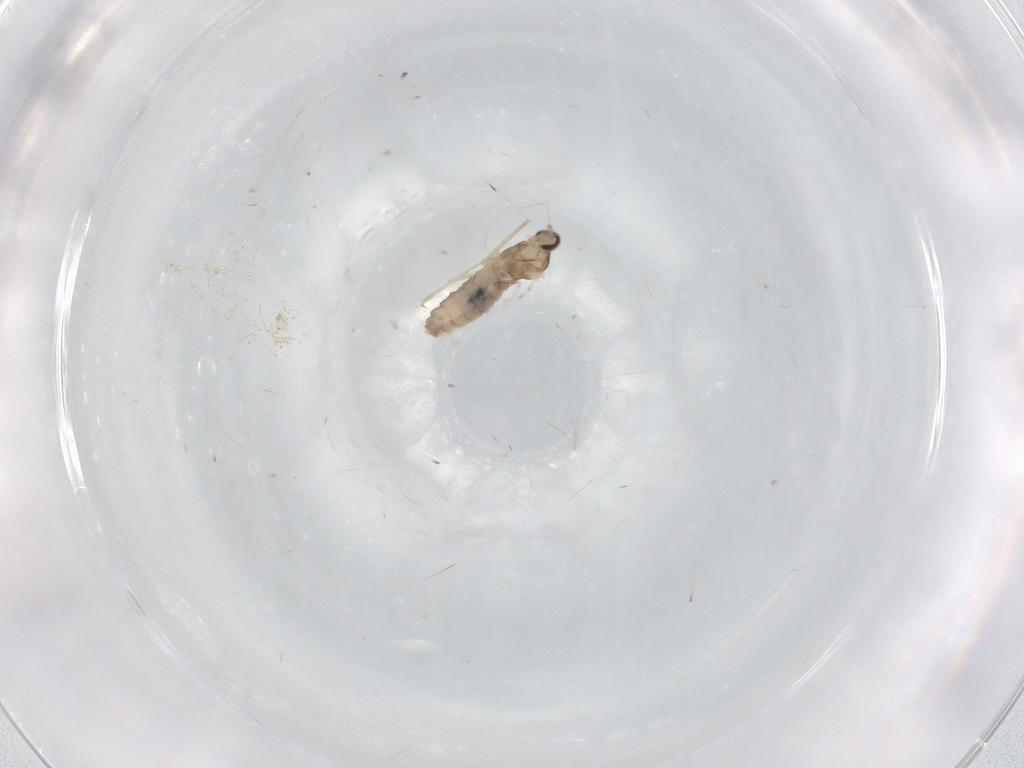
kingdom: Animalia
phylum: Arthropoda
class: Insecta
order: Diptera
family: Cecidomyiidae
